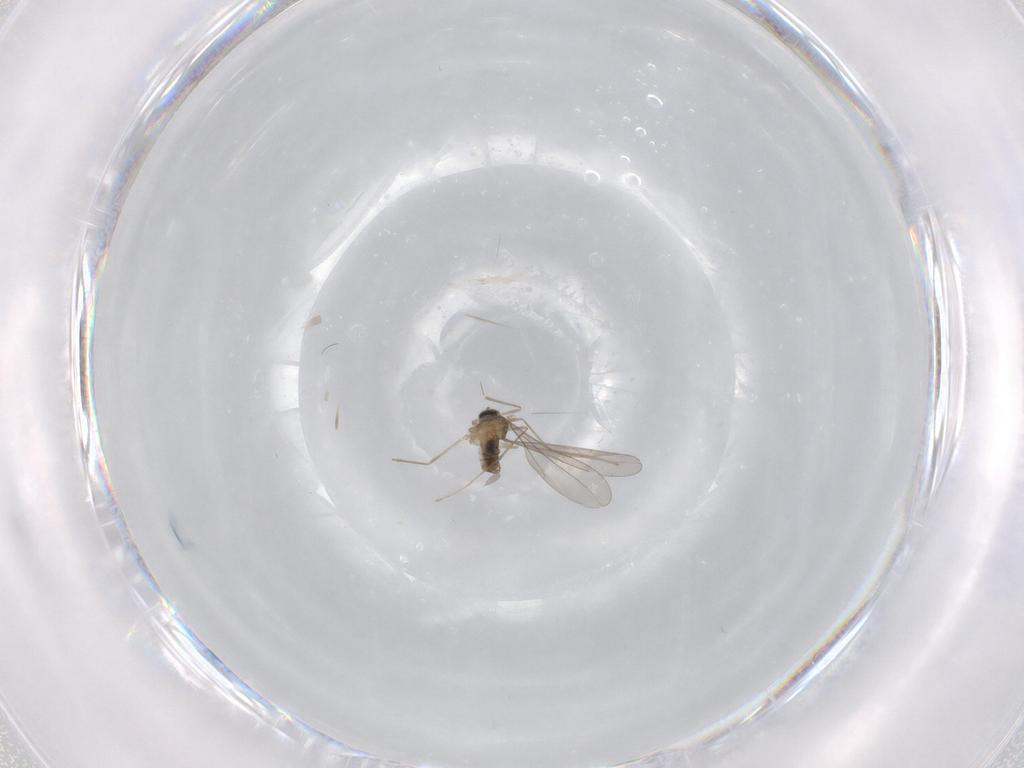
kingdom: Animalia
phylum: Arthropoda
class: Insecta
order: Diptera
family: Cecidomyiidae
